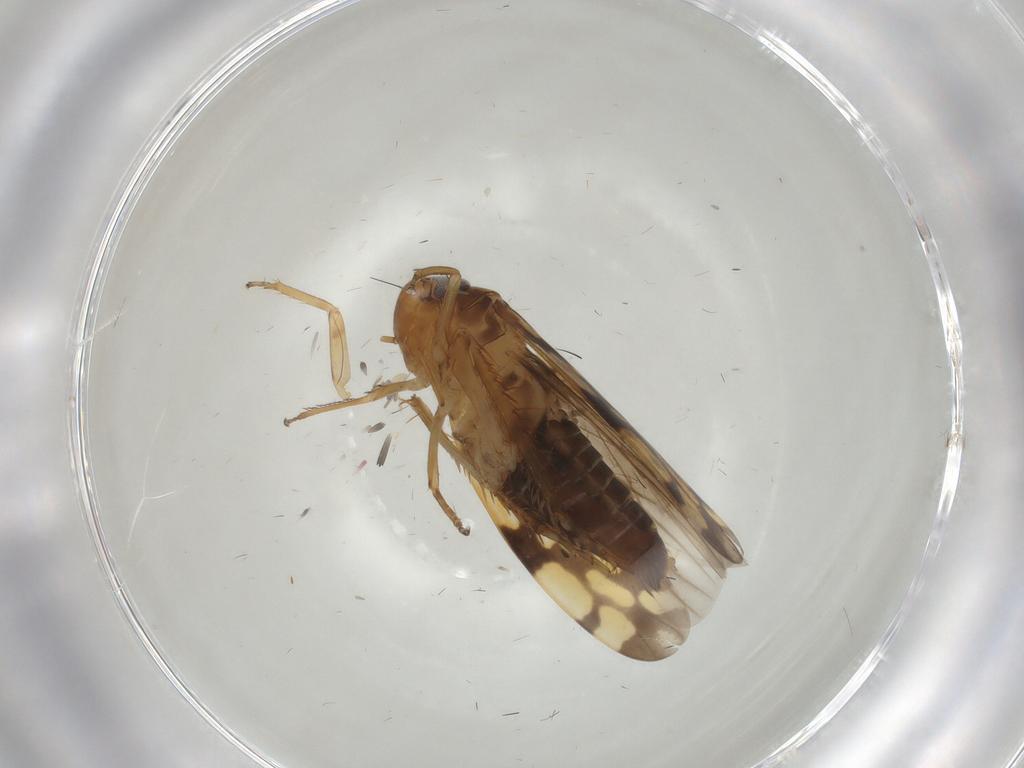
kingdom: Animalia
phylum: Arthropoda
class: Insecta
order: Hemiptera
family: Cicadellidae
